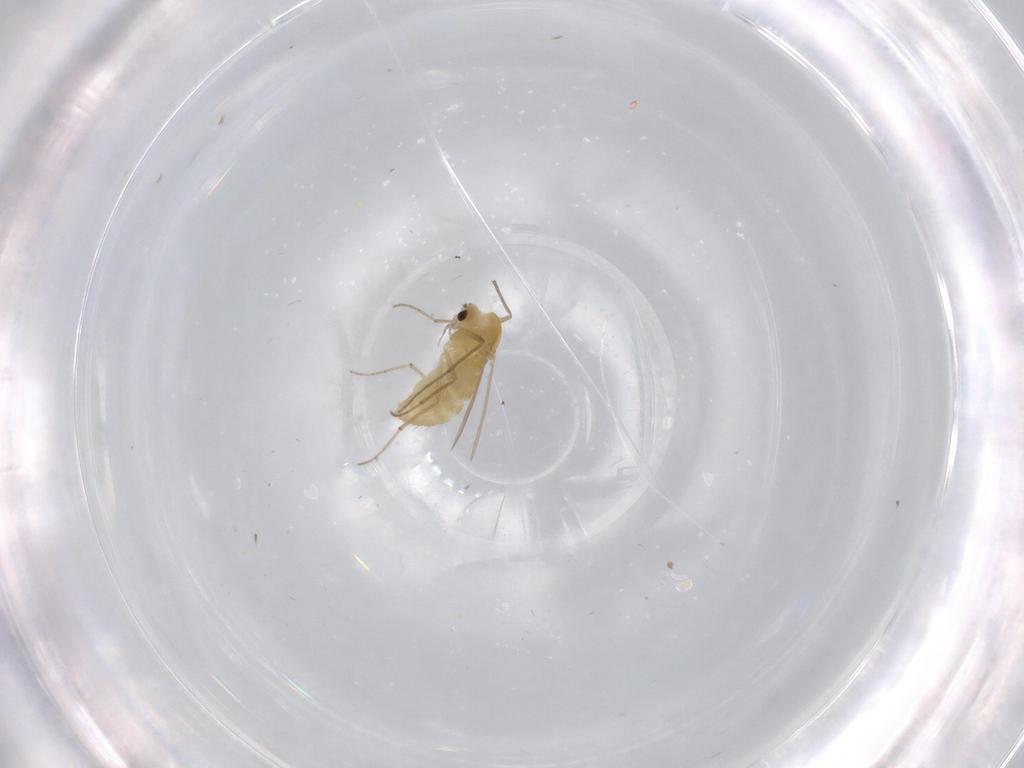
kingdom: Animalia
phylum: Arthropoda
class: Insecta
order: Diptera
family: Chironomidae
